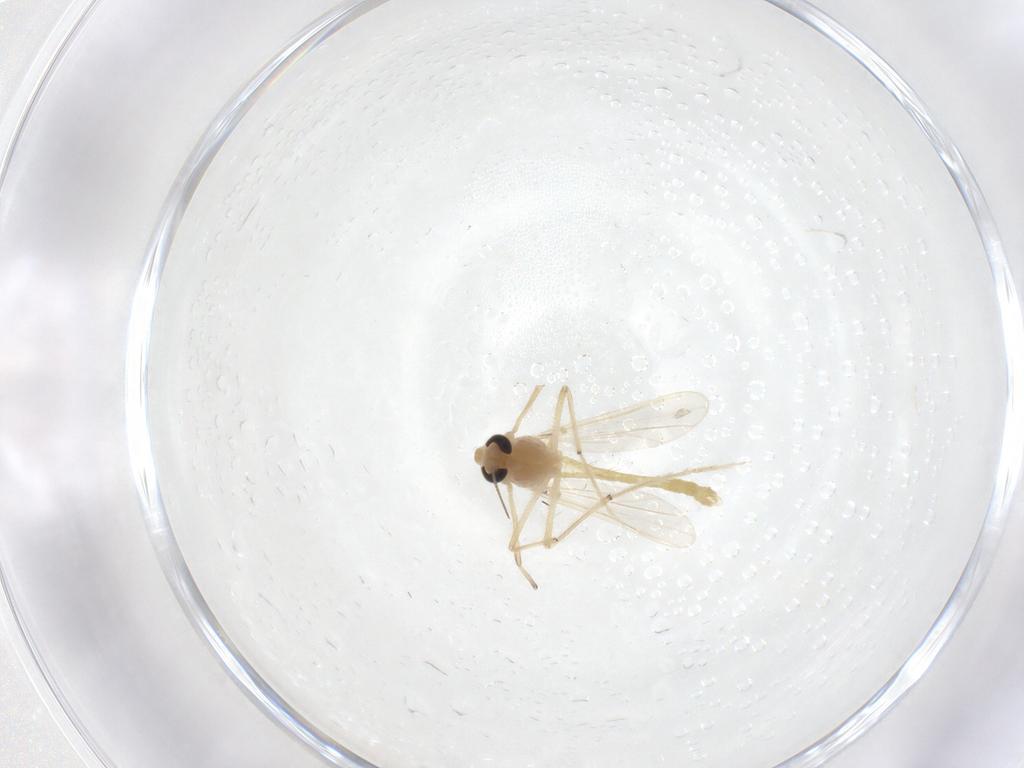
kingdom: Animalia
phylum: Arthropoda
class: Insecta
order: Diptera
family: Chironomidae
